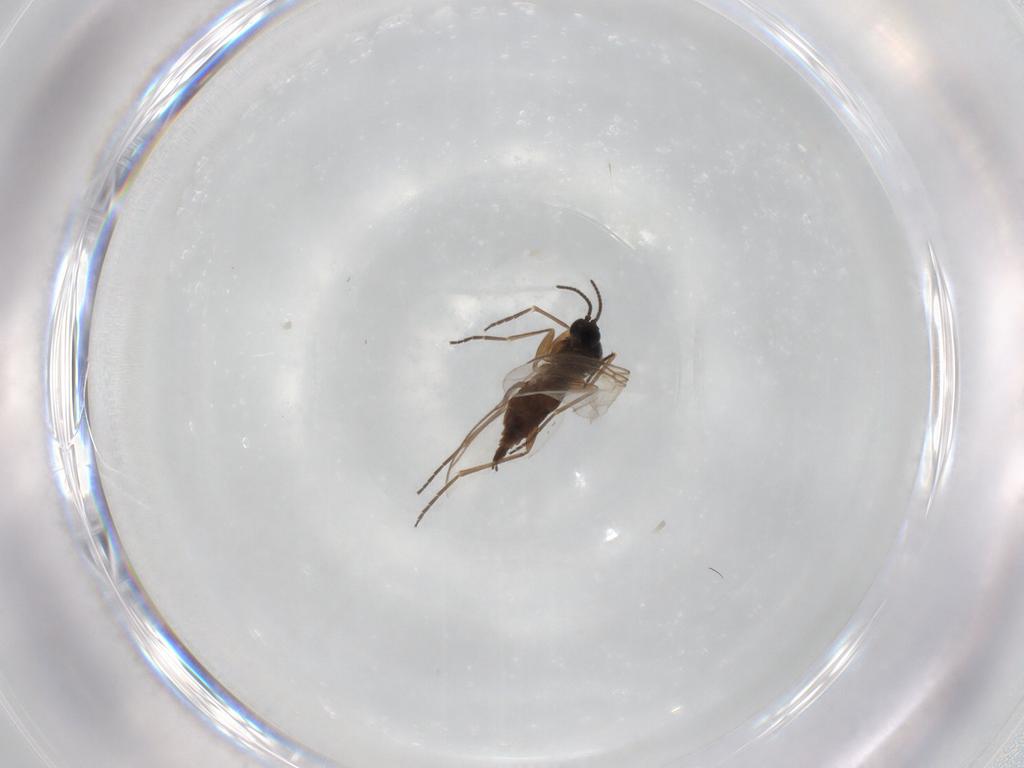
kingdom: Animalia
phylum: Arthropoda
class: Insecta
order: Diptera
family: Sciaridae
